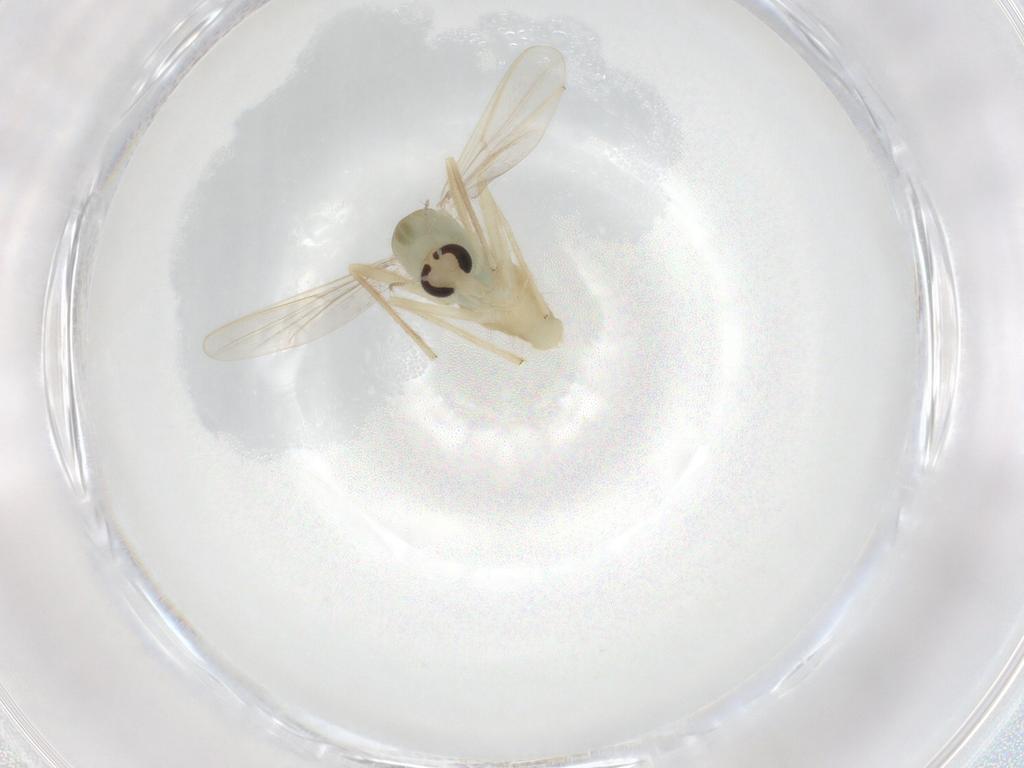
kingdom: Animalia
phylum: Arthropoda
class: Insecta
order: Diptera
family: Chironomidae
